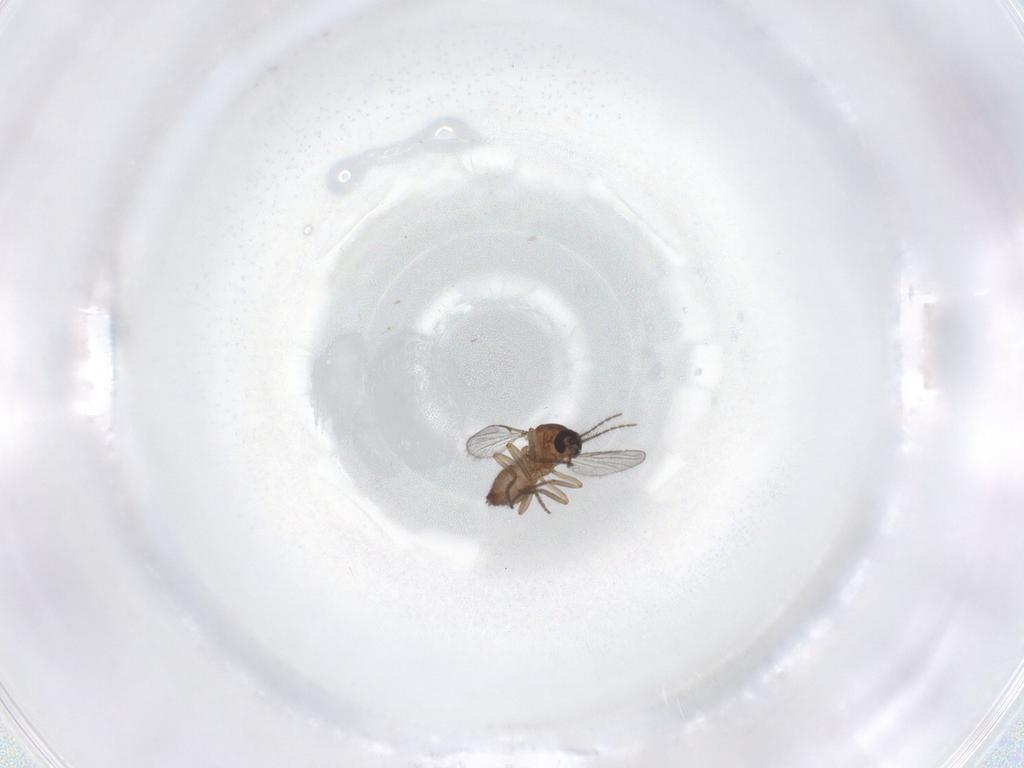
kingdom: Animalia
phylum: Arthropoda
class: Insecta
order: Diptera
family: Ceratopogonidae
